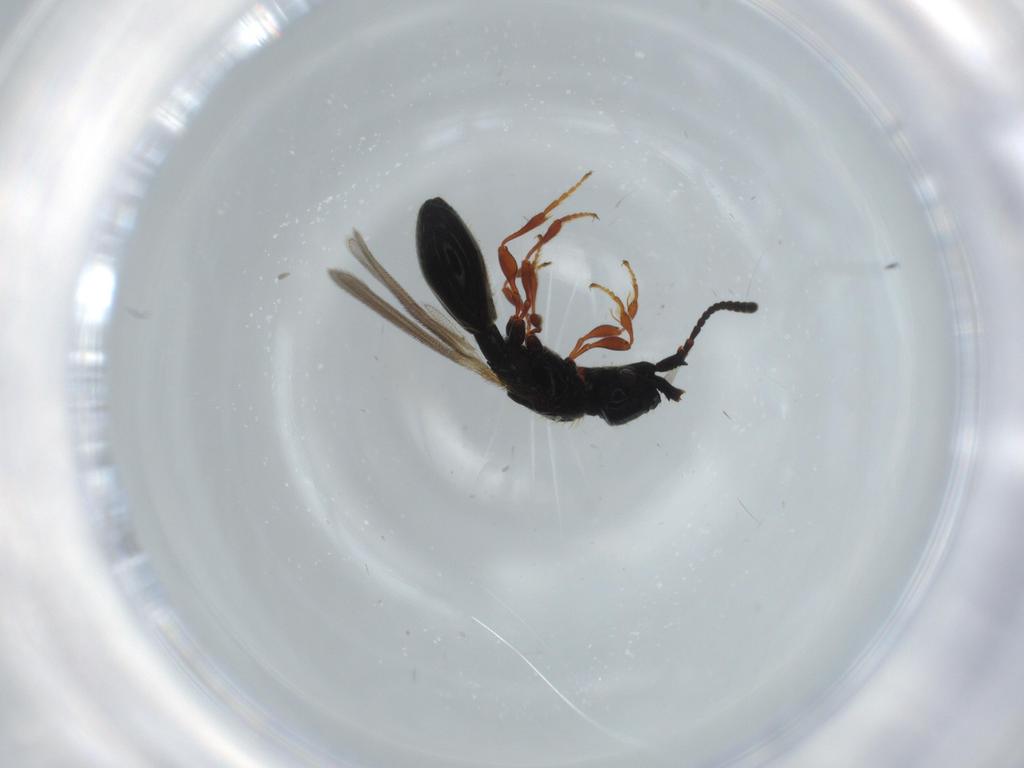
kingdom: Animalia
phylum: Arthropoda
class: Insecta
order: Hymenoptera
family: Diapriidae
